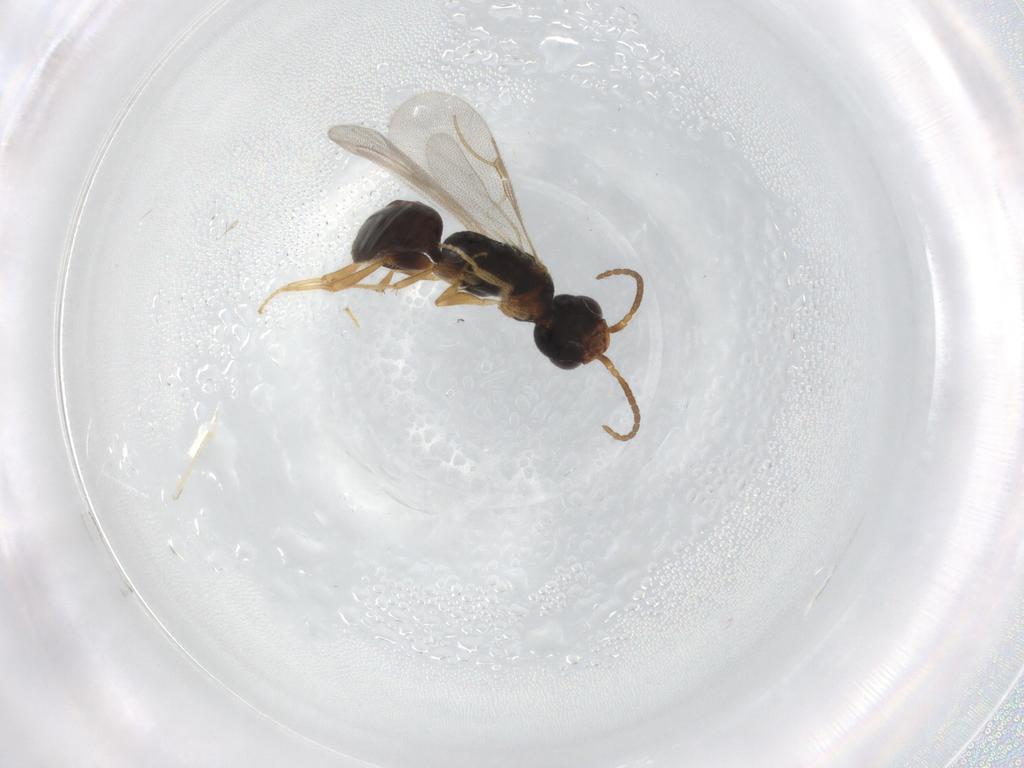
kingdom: Animalia
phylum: Arthropoda
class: Insecta
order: Hymenoptera
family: Bethylidae
